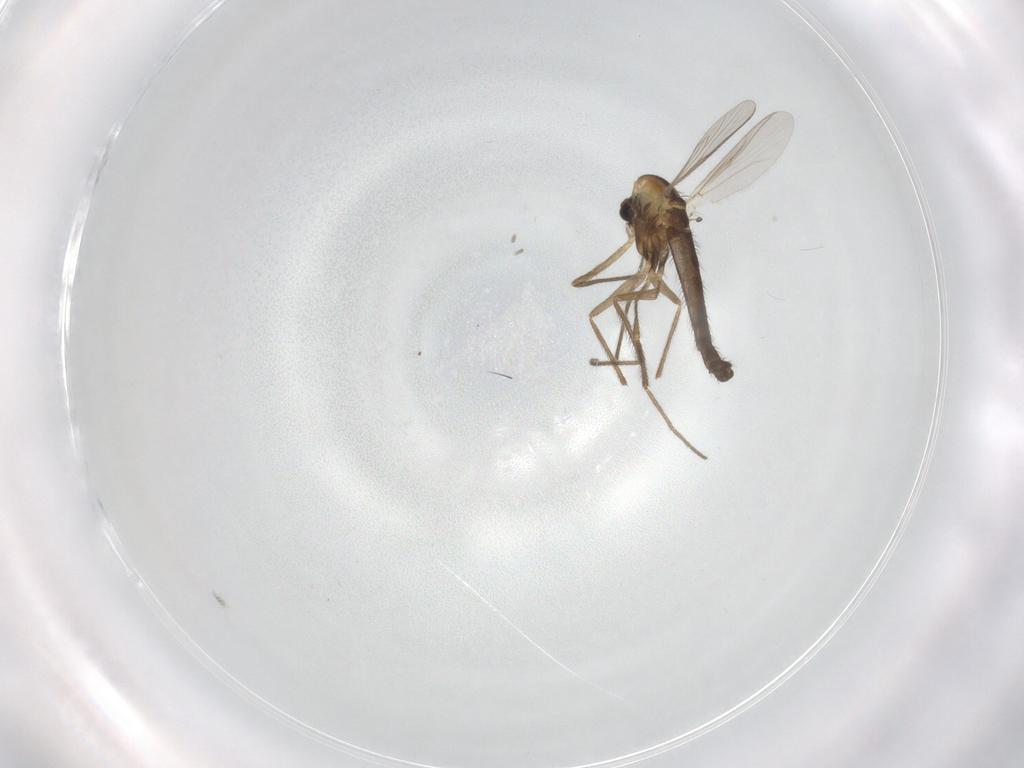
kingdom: Animalia
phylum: Arthropoda
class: Insecta
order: Diptera
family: Chironomidae
